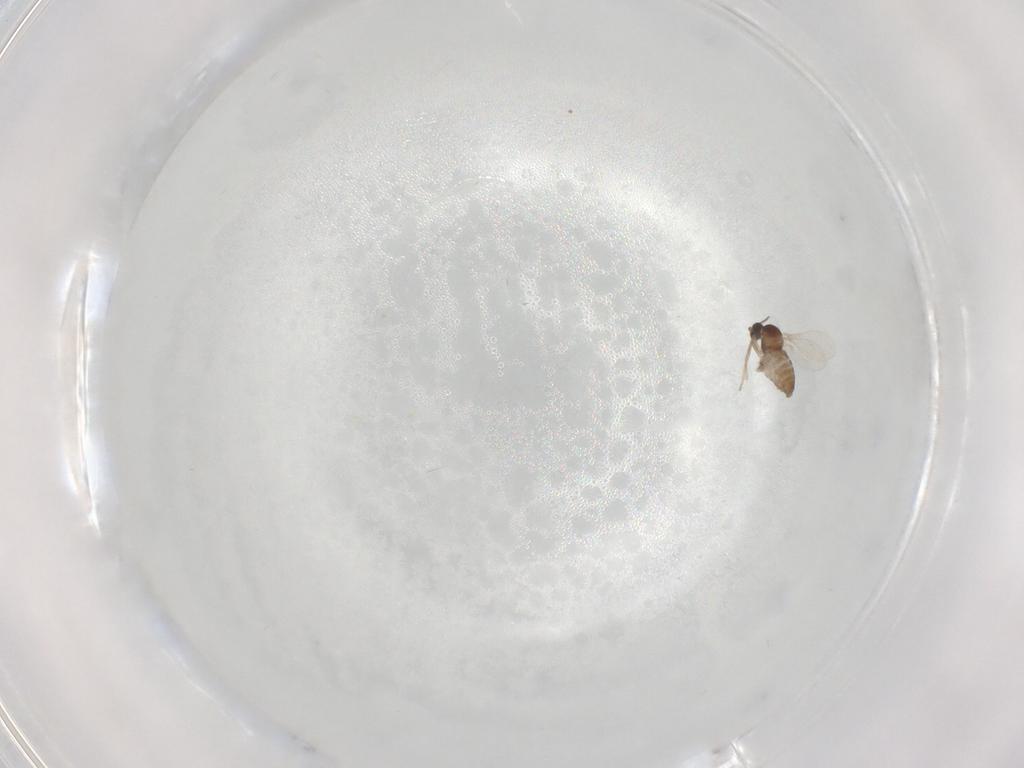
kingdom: Animalia
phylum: Arthropoda
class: Insecta
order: Diptera
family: Cecidomyiidae
